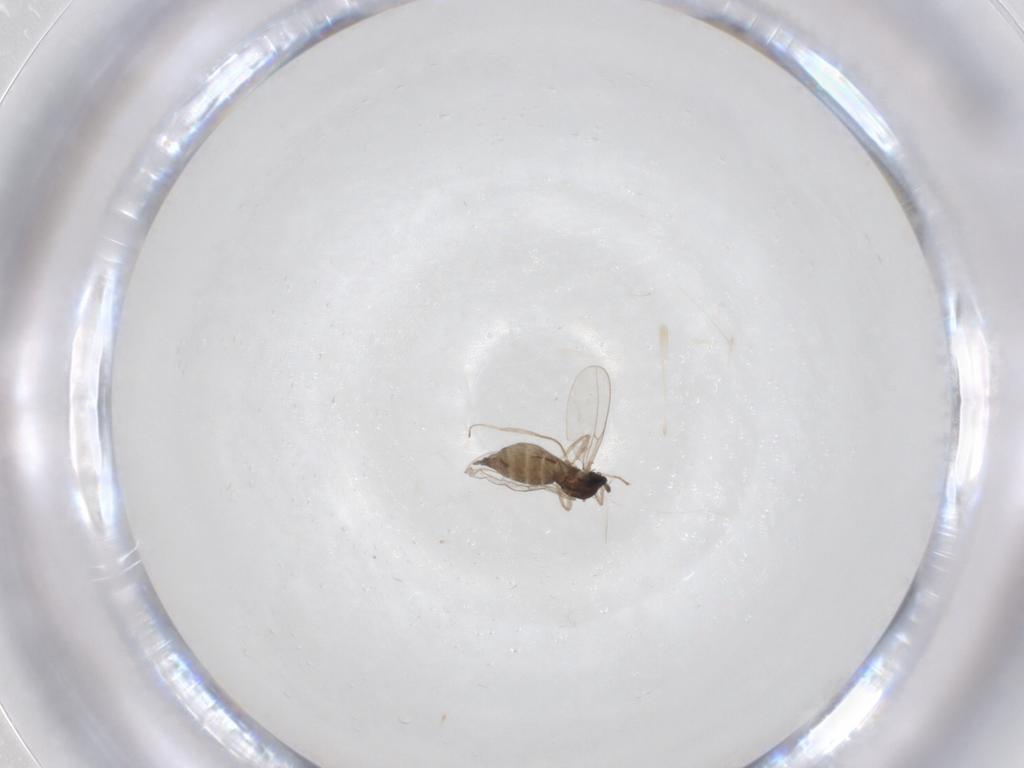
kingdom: Animalia
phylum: Arthropoda
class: Insecta
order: Diptera
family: Cecidomyiidae
